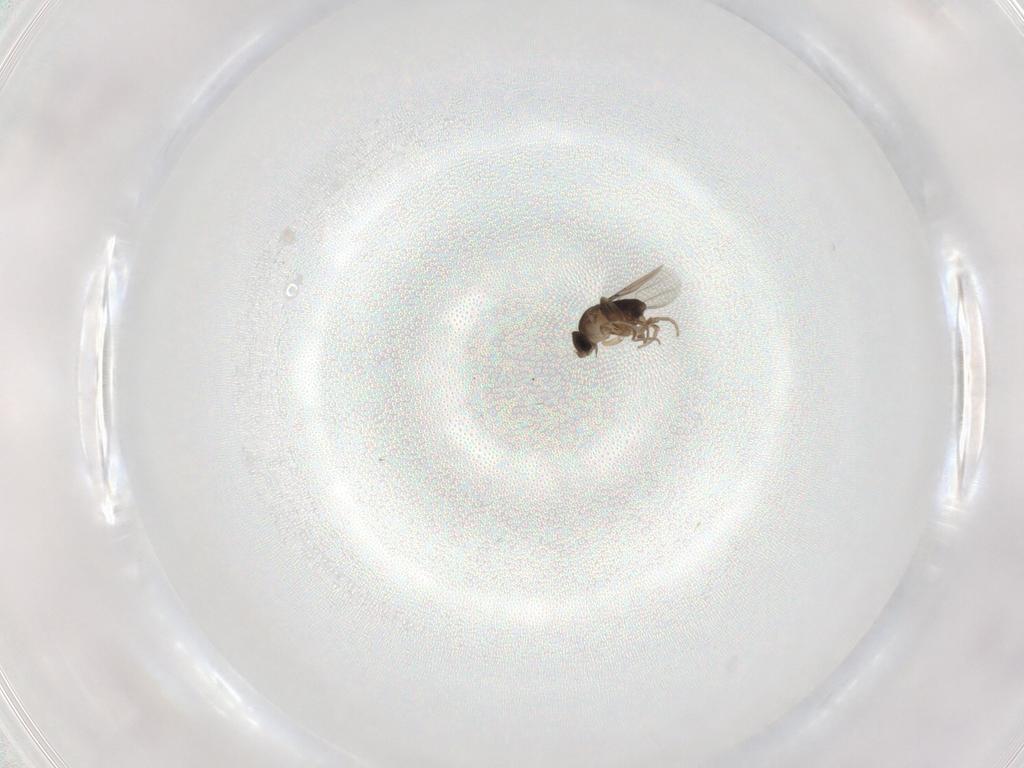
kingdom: Animalia
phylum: Arthropoda
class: Insecta
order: Diptera
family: Phoridae
